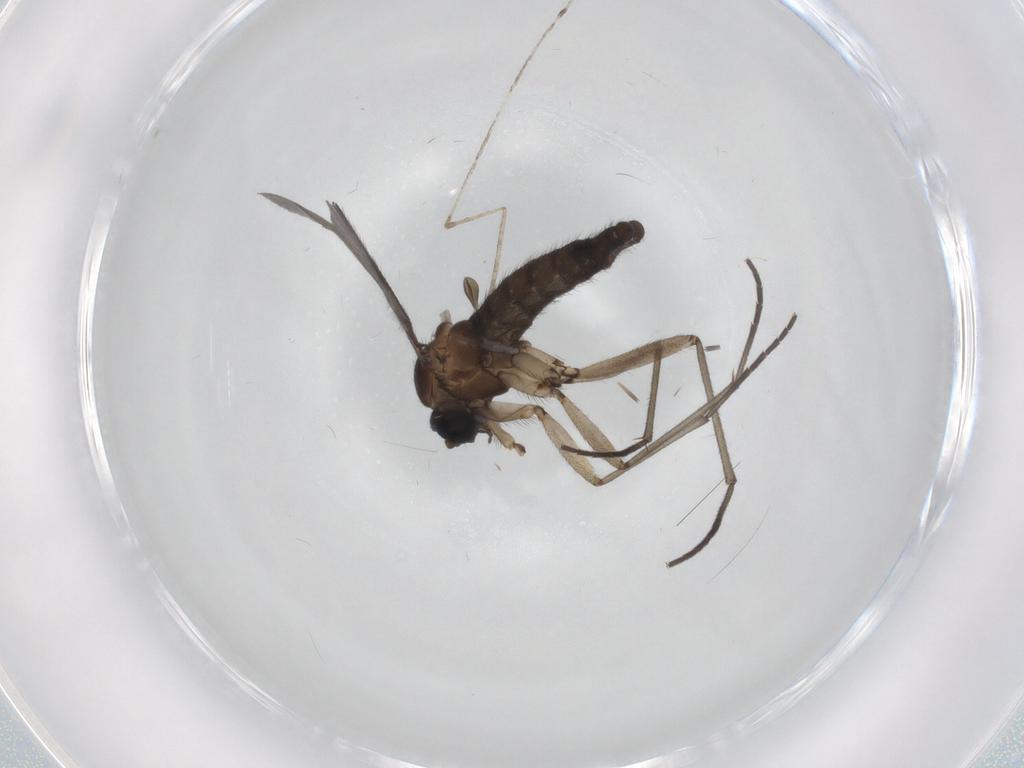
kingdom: Animalia
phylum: Arthropoda
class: Insecta
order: Diptera
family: Sciaridae
